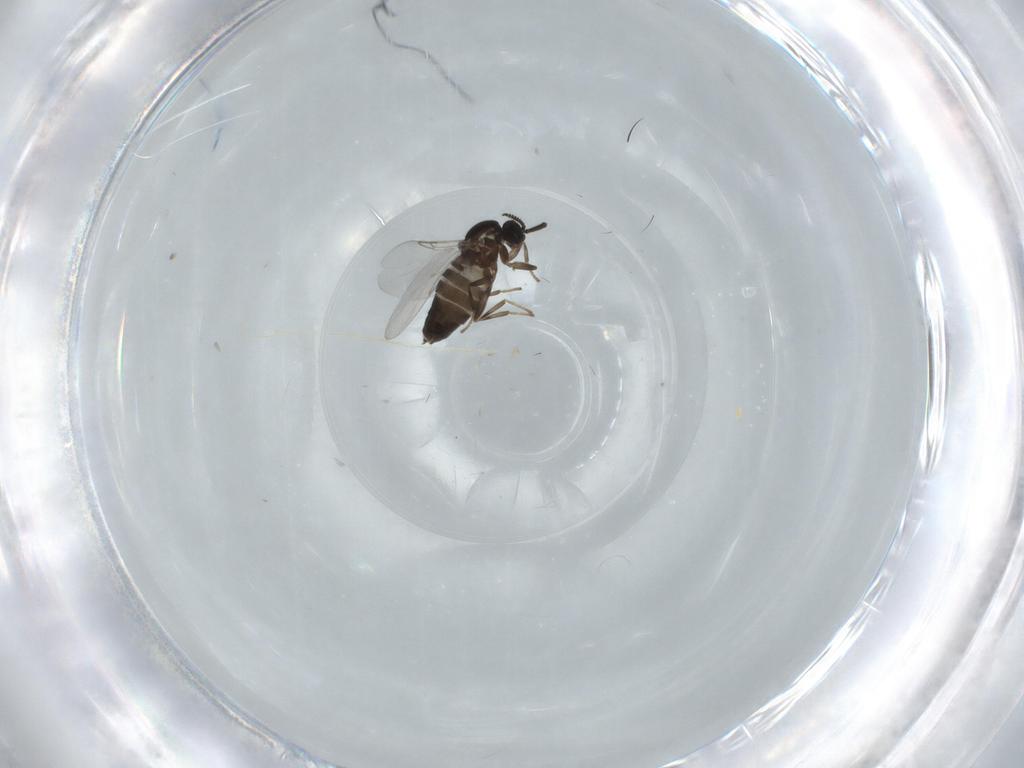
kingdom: Animalia
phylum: Arthropoda
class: Insecta
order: Diptera
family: Scatopsidae
